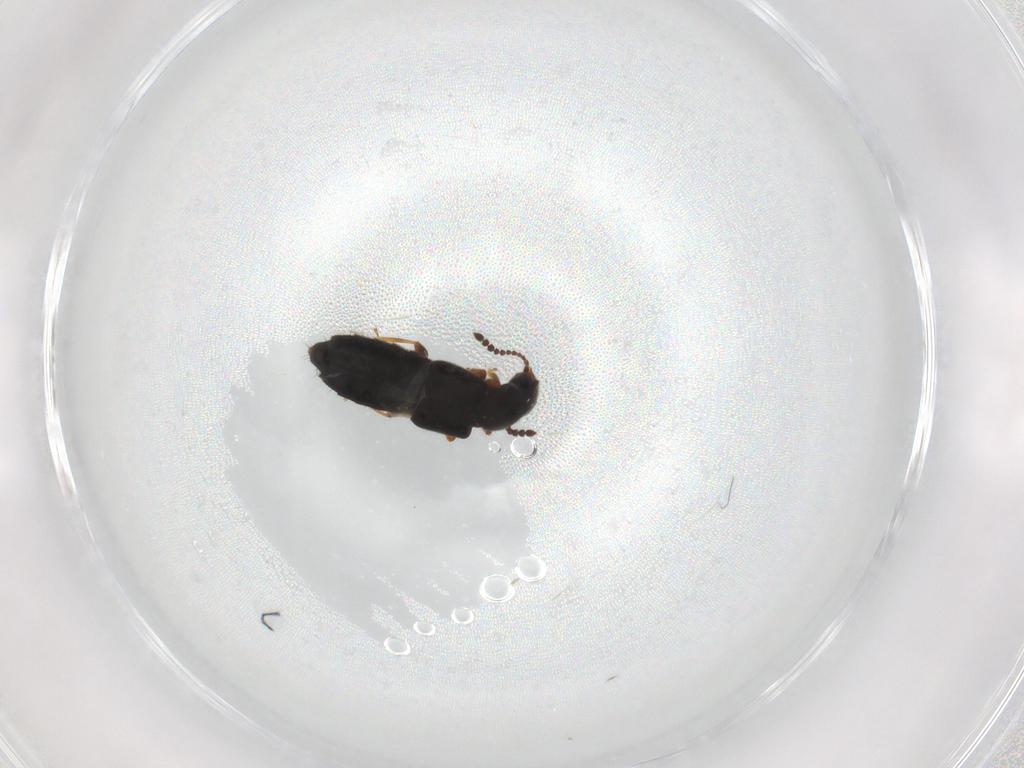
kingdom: Animalia
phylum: Arthropoda
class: Insecta
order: Coleoptera
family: Staphylinidae
